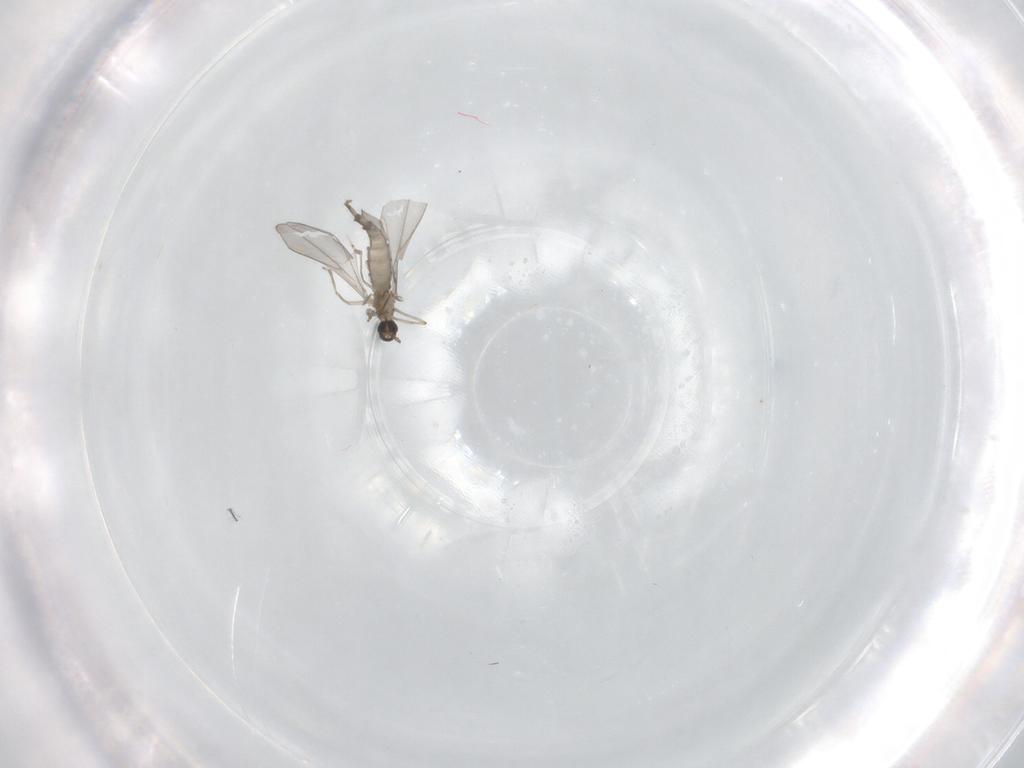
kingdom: Animalia
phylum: Arthropoda
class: Insecta
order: Diptera
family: Cecidomyiidae
